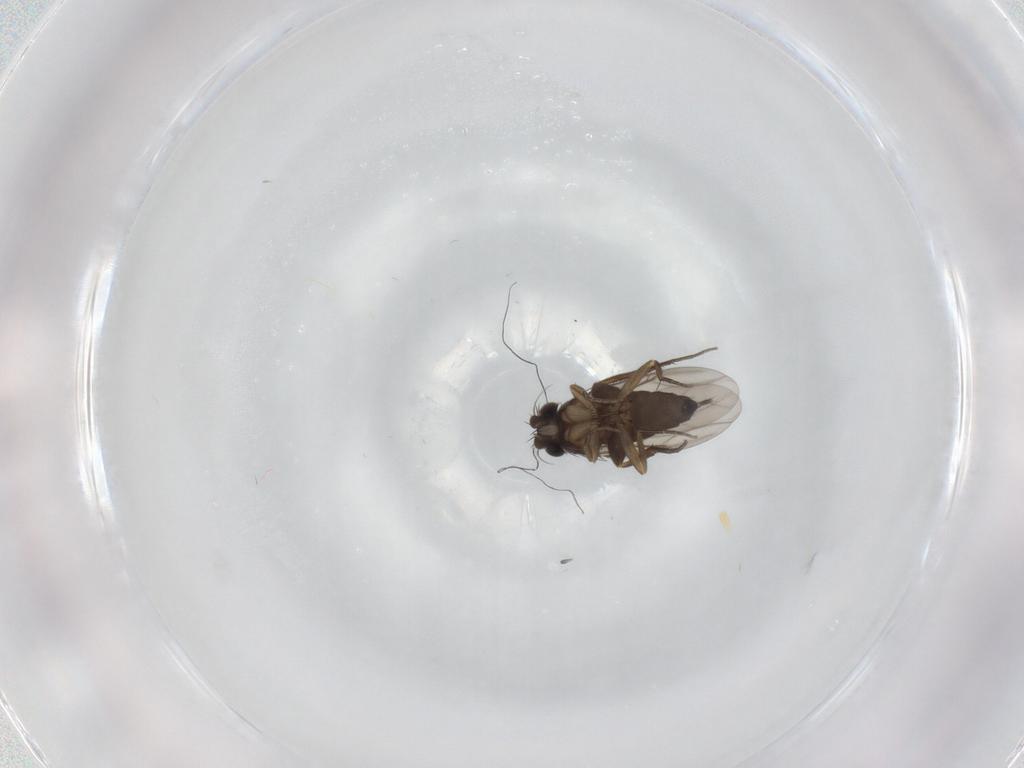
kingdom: Animalia
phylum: Arthropoda
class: Insecta
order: Diptera
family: Phoridae
